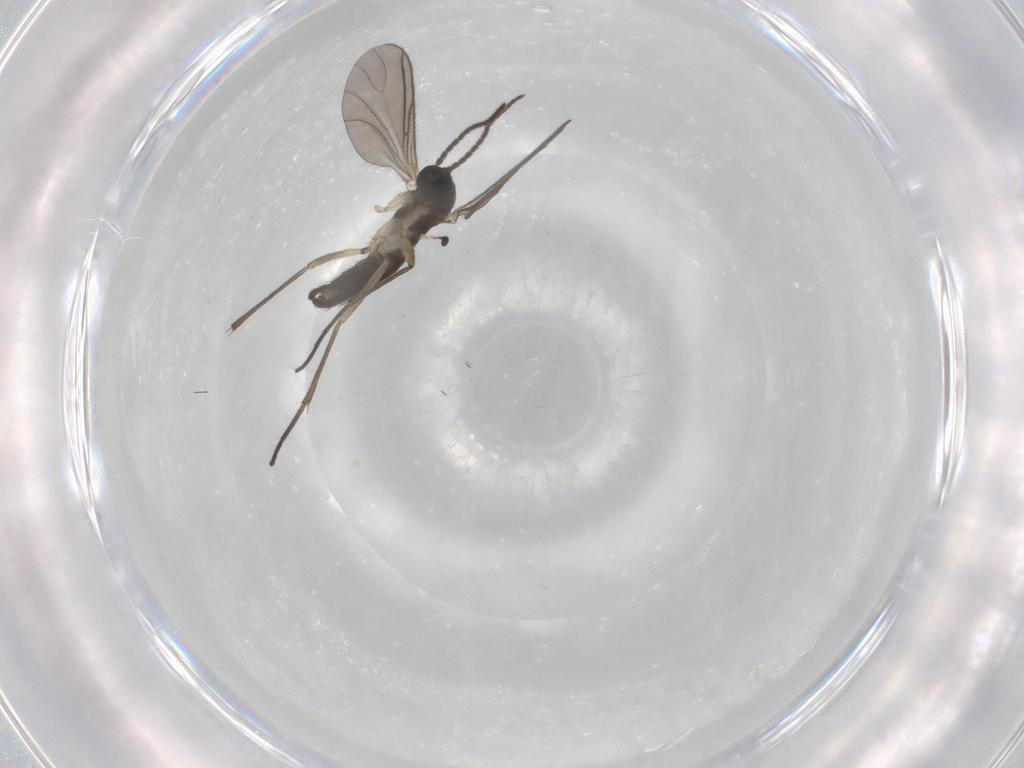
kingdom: Animalia
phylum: Arthropoda
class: Insecta
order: Diptera
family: Sciaridae
